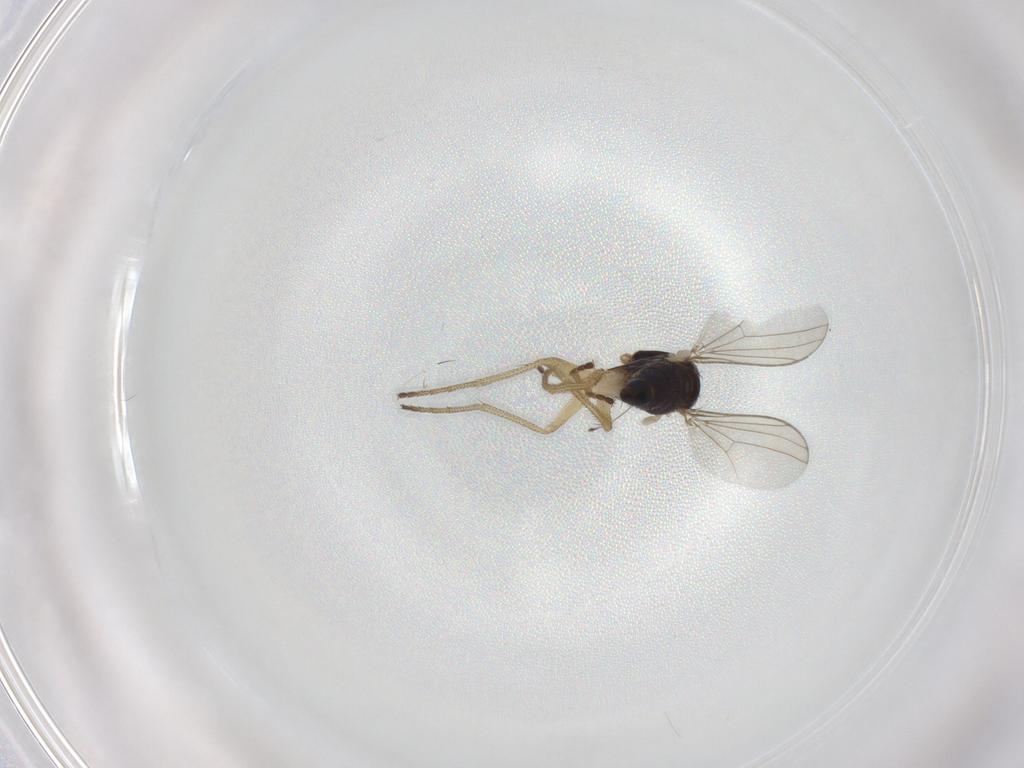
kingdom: Animalia
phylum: Arthropoda
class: Insecta
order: Diptera
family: Dolichopodidae
